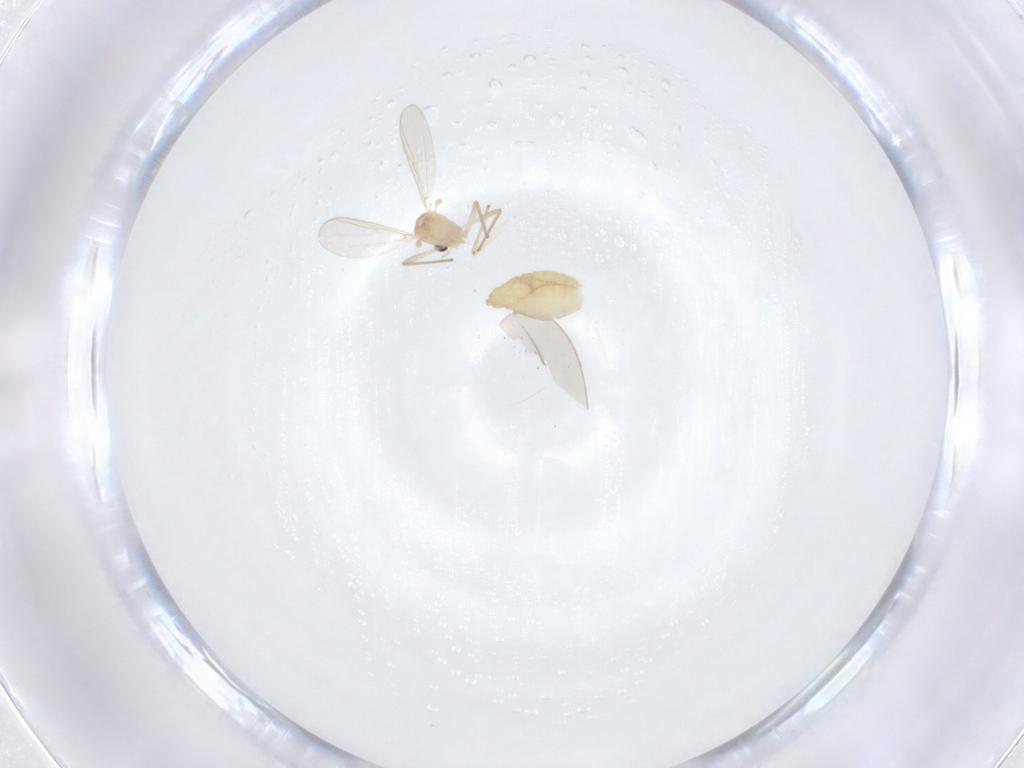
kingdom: Animalia
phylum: Arthropoda
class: Insecta
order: Diptera
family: Chironomidae
